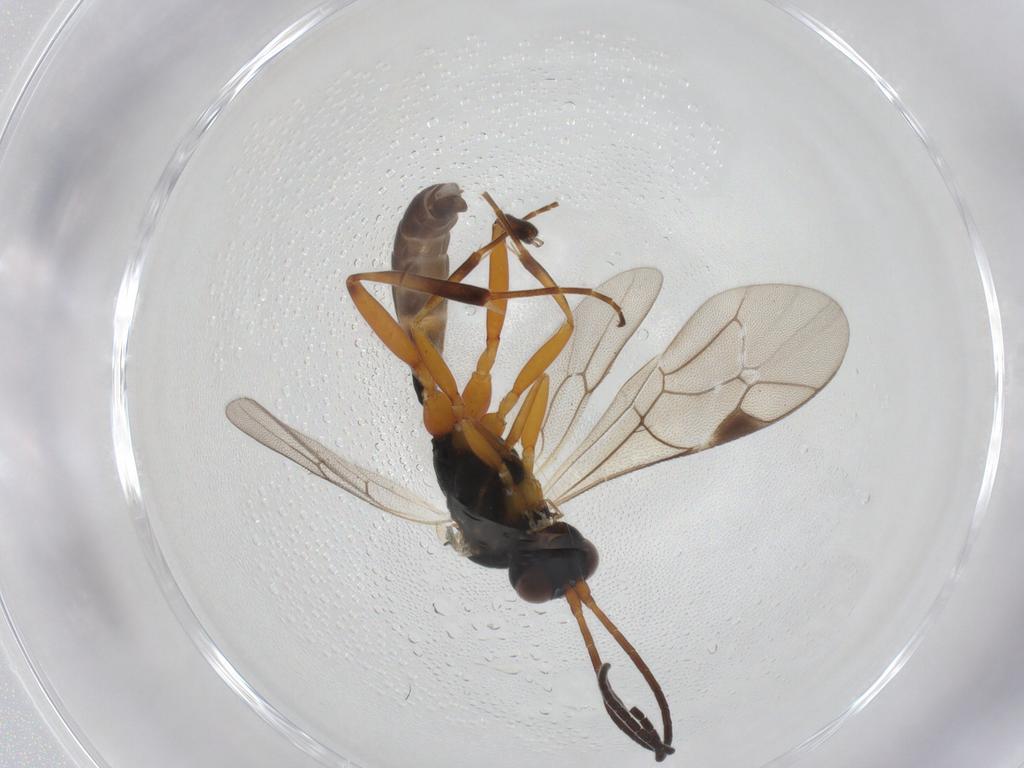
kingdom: Animalia
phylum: Arthropoda
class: Insecta
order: Hymenoptera
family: Ichneumonidae
